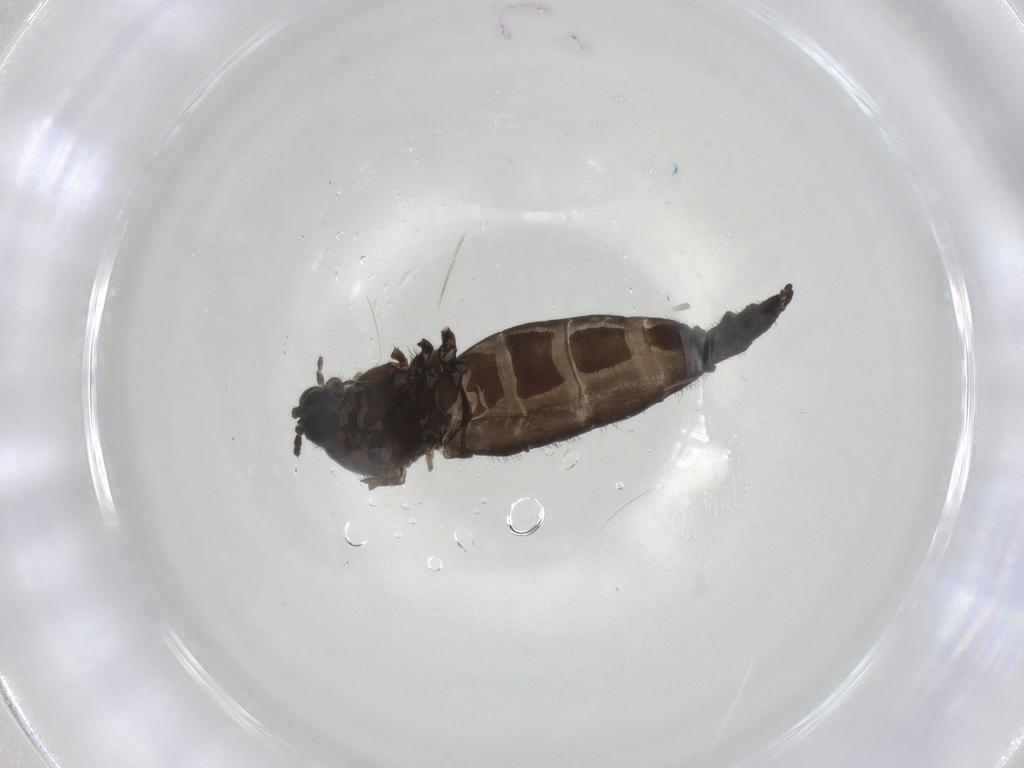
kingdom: Animalia
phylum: Arthropoda
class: Insecta
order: Diptera
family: Sciaridae
